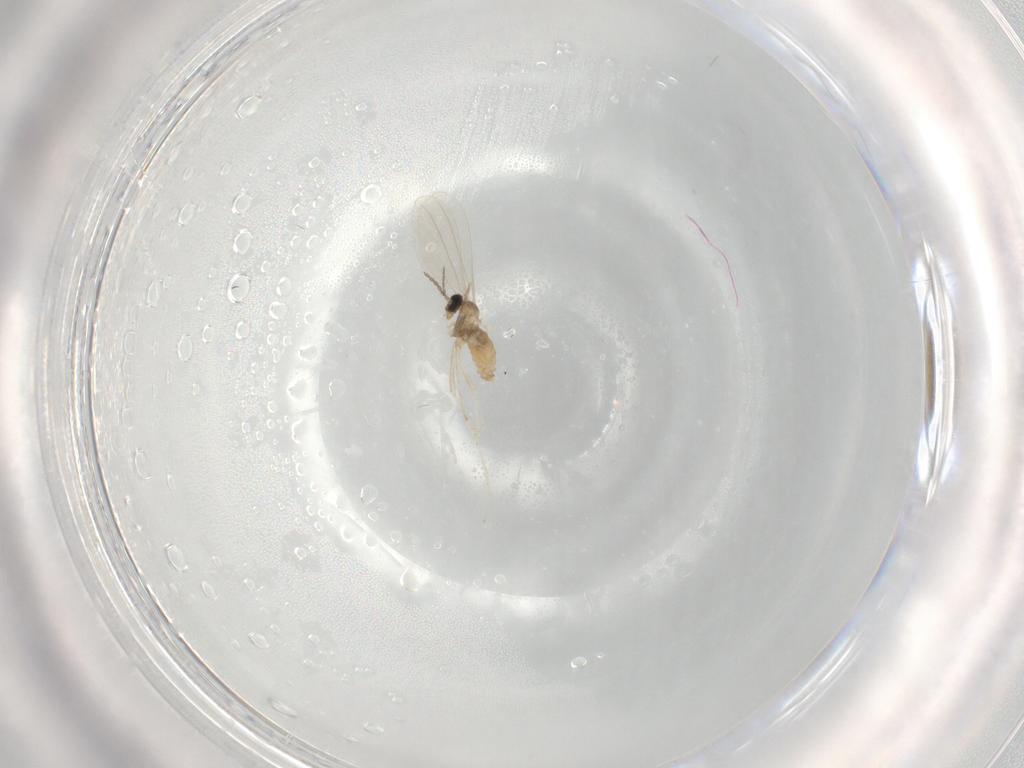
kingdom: Animalia
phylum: Arthropoda
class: Insecta
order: Diptera
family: Cecidomyiidae
